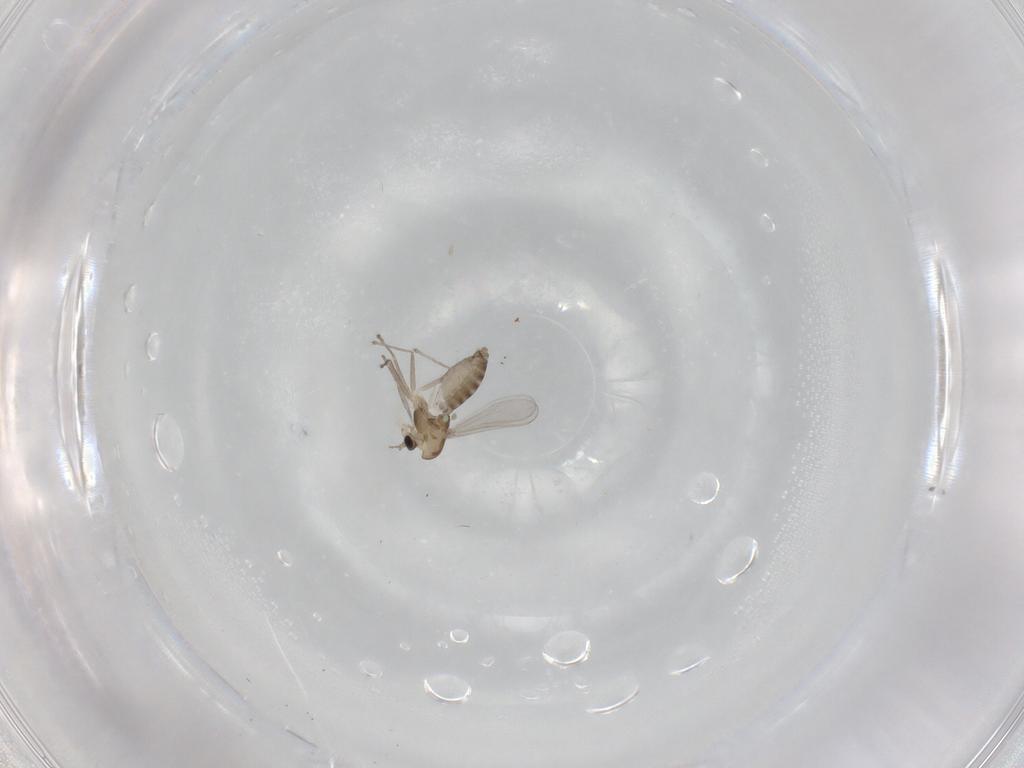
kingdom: Animalia
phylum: Arthropoda
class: Insecta
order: Diptera
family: Chironomidae
